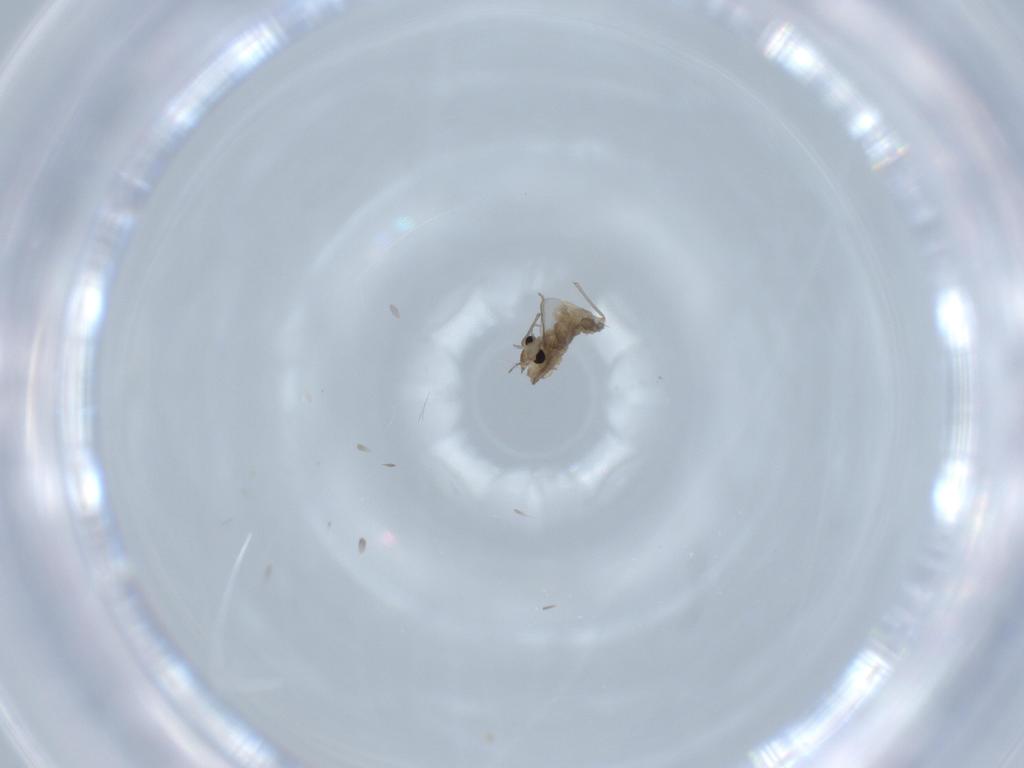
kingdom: Animalia
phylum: Arthropoda
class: Insecta
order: Diptera
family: Chironomidae
